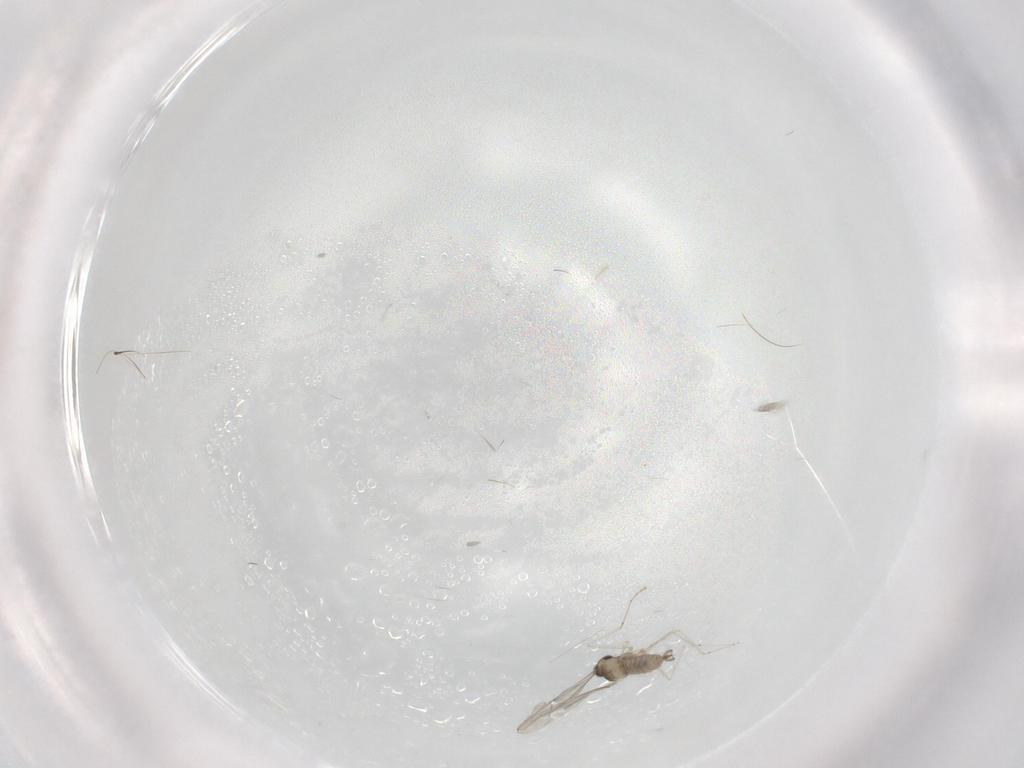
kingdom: Animalia
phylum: Arthropoda
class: Insecta
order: Diptera
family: Cecidomyiidae
